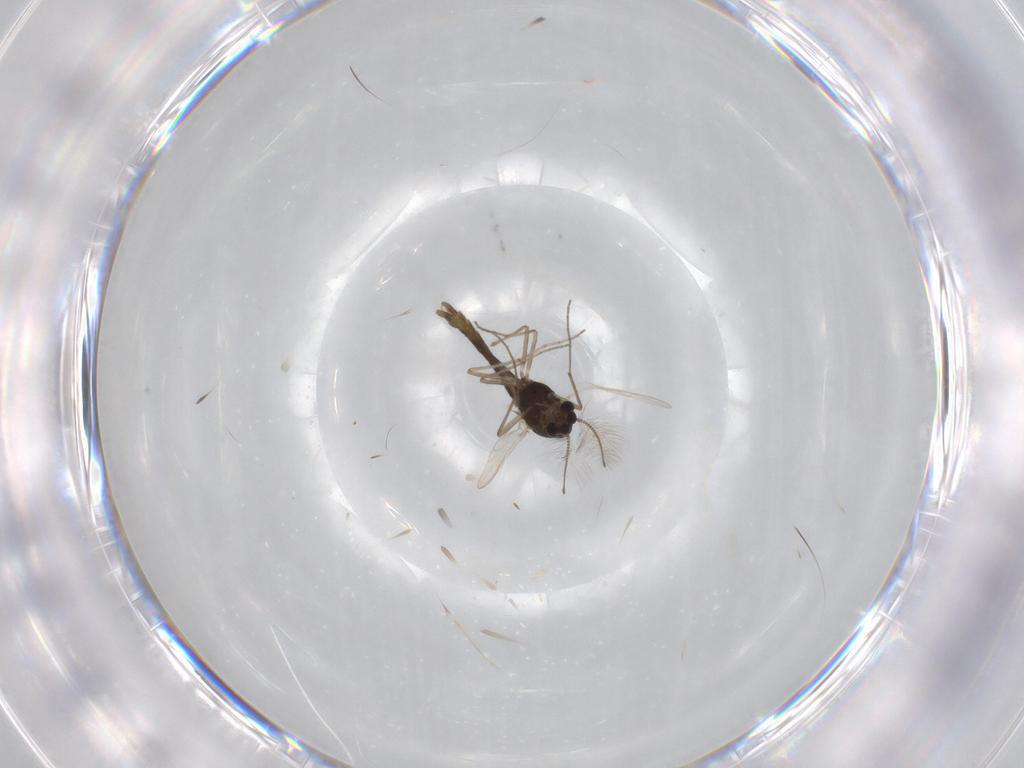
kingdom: Animalia
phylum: Arthropoda
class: Insecta
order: Diptera
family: Chironomidae
